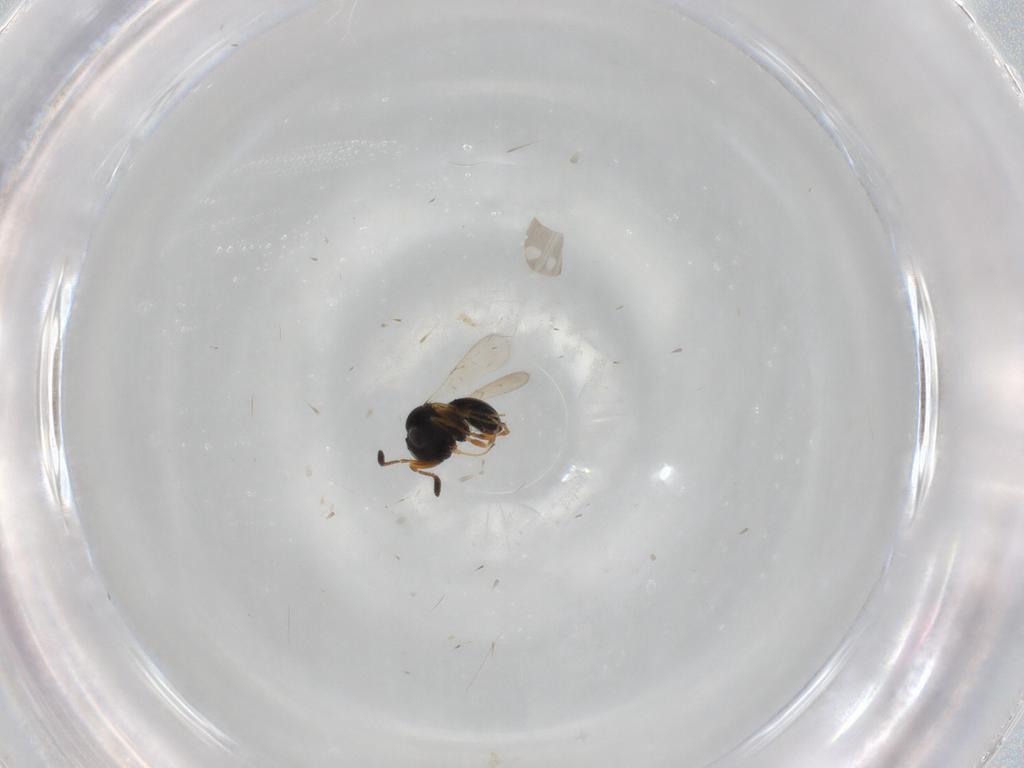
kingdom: Animalia
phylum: Arthropoda
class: Insecta
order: Hymenoptera
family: Scelionidae
